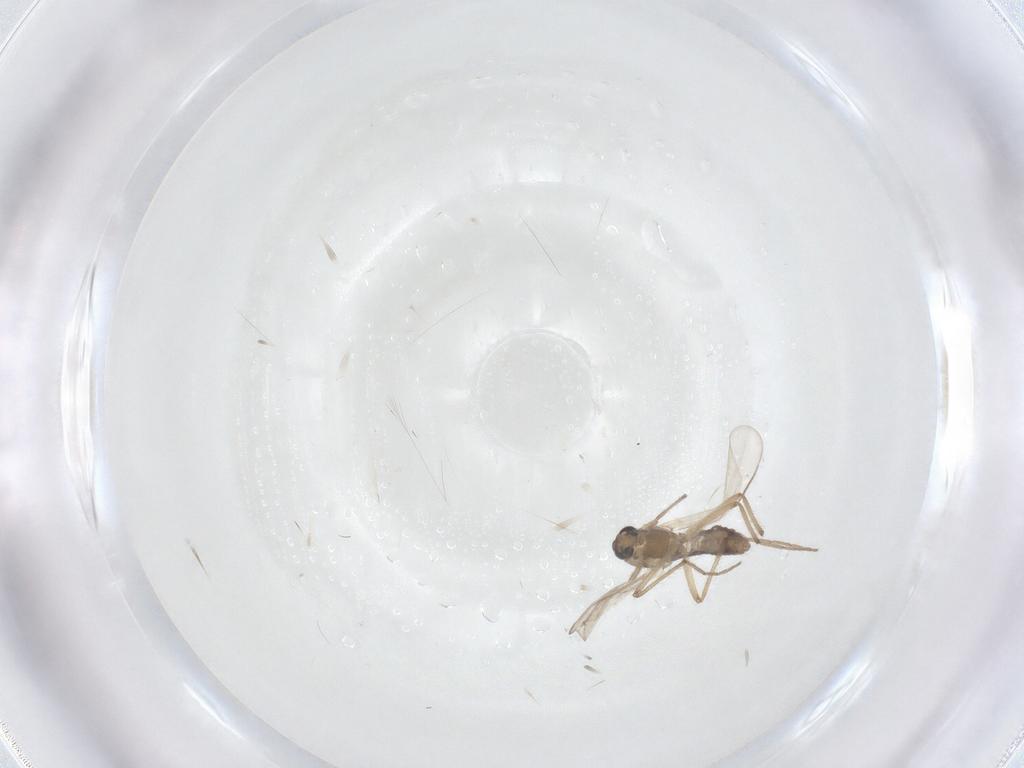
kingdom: Animalia
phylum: Arthropoda
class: Insecta
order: Diptera
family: Chironomidae
